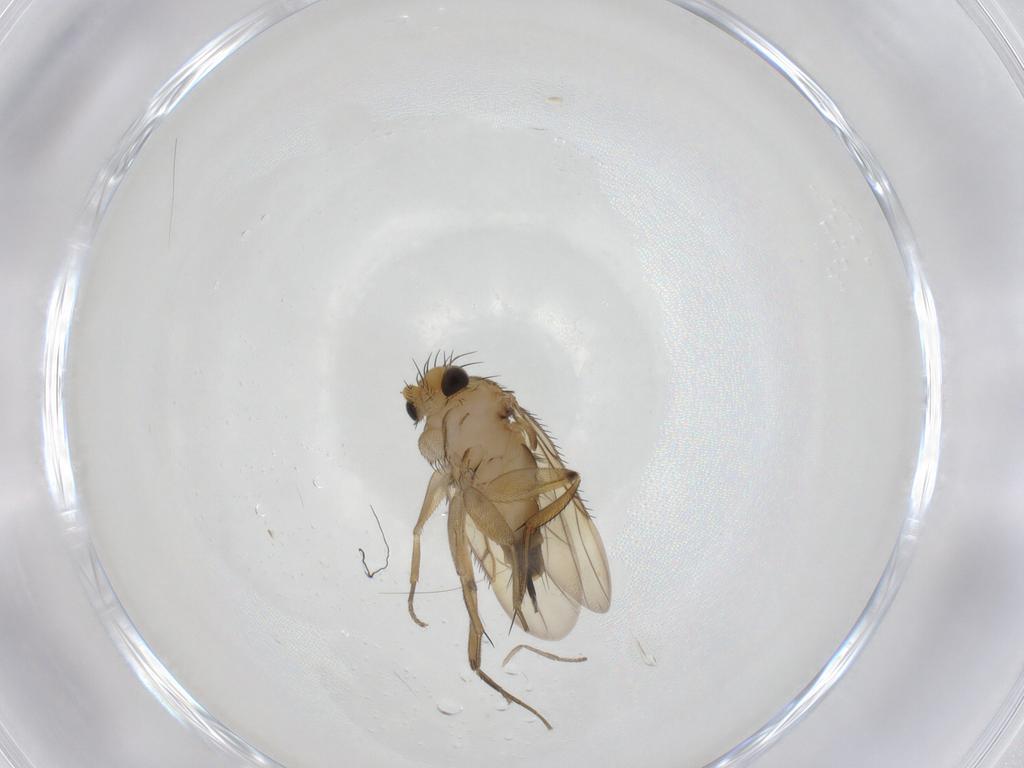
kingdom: Animalia
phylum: Arthropoda
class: Insecta
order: Diptera
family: Phoridae
